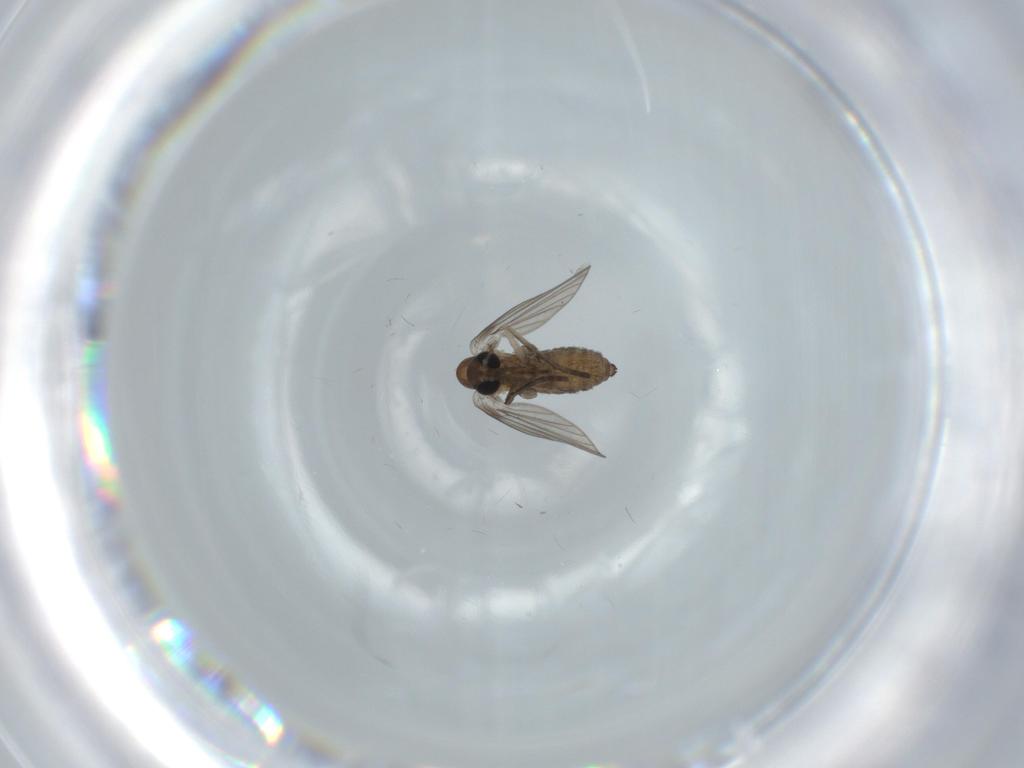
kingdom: Animalia
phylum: Arthropoda
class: Insecta
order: Diptera
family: Psychodidae
